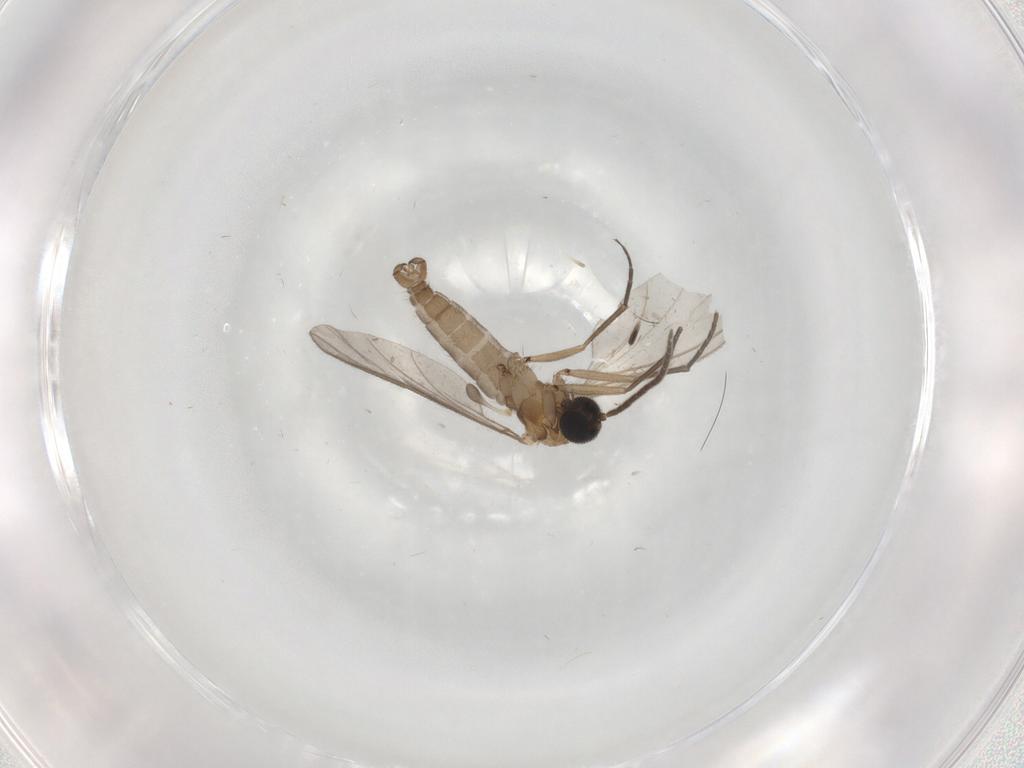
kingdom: Animalia
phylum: Arthropoda
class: Insecta
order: Diptera
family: Sciaridae
